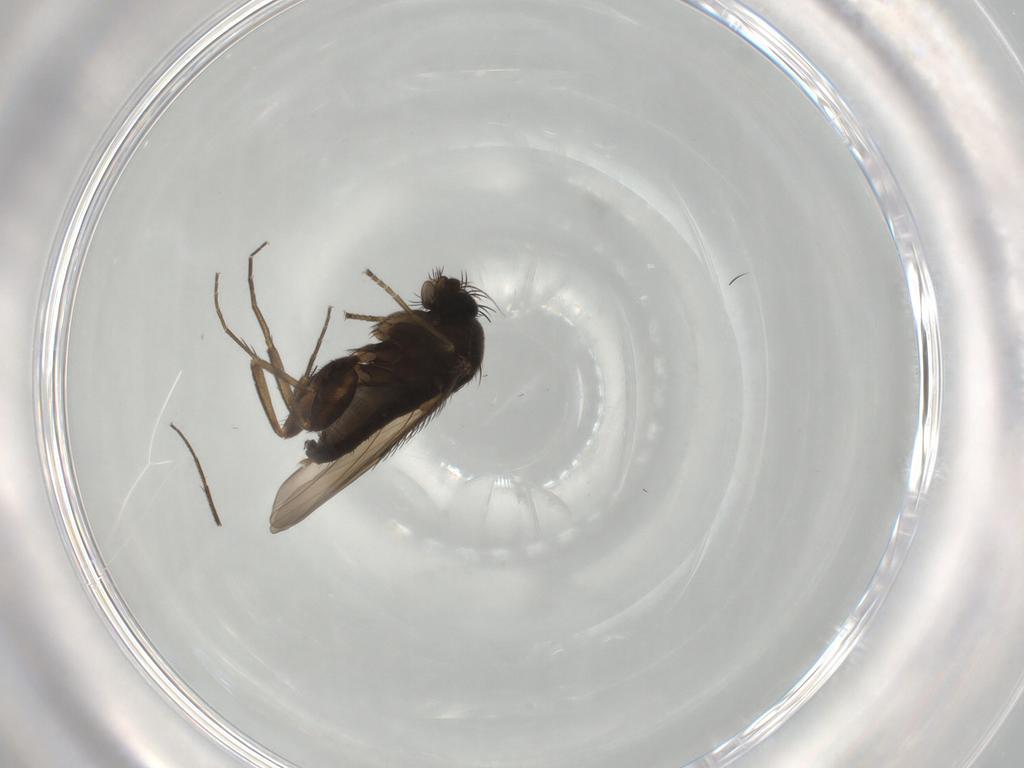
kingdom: Animalia
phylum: Arthropoda
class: Insecta
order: Diptera
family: Phoridae
